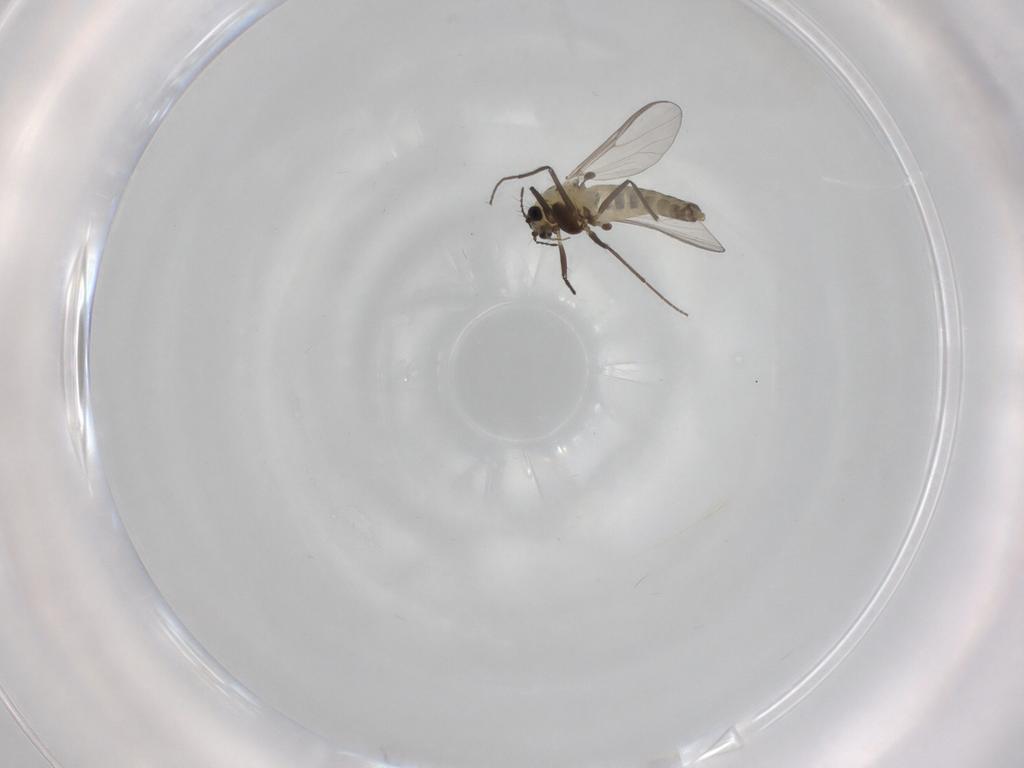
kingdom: Animalia
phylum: Arthropoda
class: Insecta
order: Diptera
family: Chironomidae
